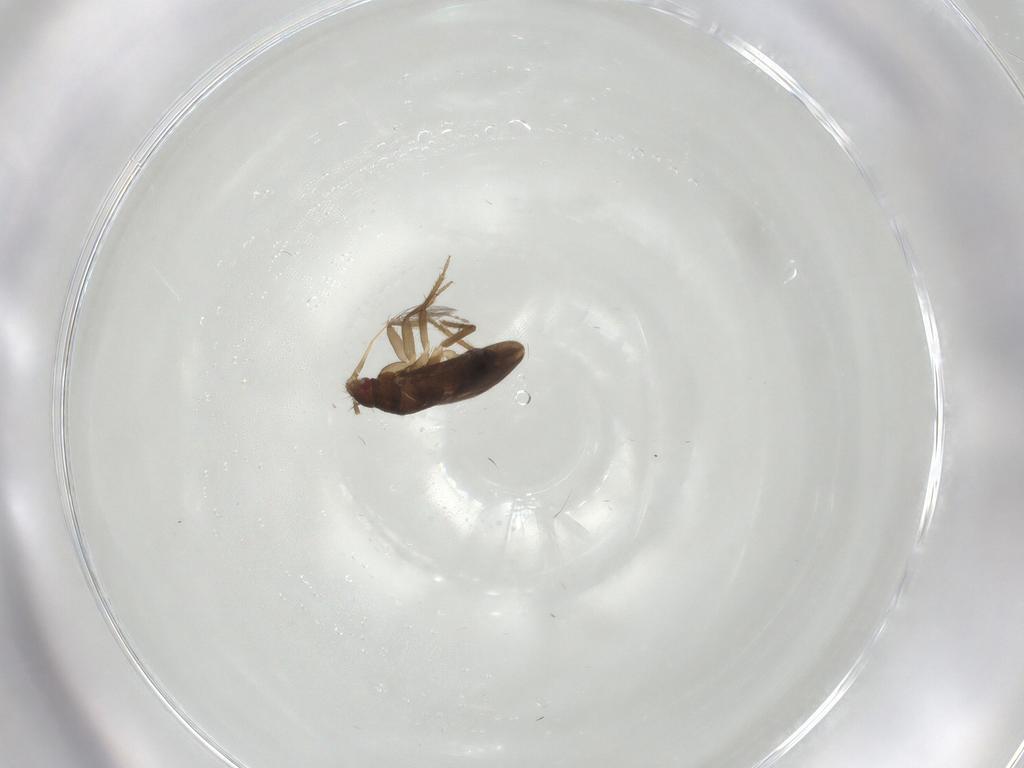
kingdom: Animalia
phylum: Arthropoda
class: Insecta
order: Hemiptera
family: Ceratocombidae
